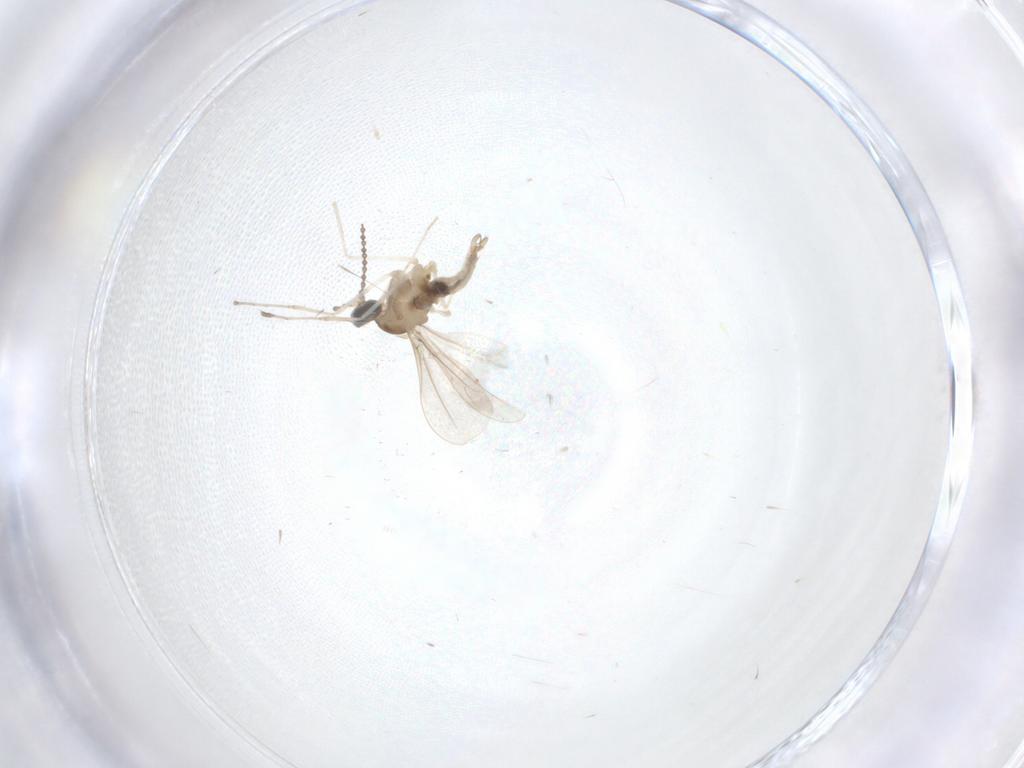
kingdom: Animalia
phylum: Arthropoda
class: Insecta
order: Diptera
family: Cecidomyiidae
